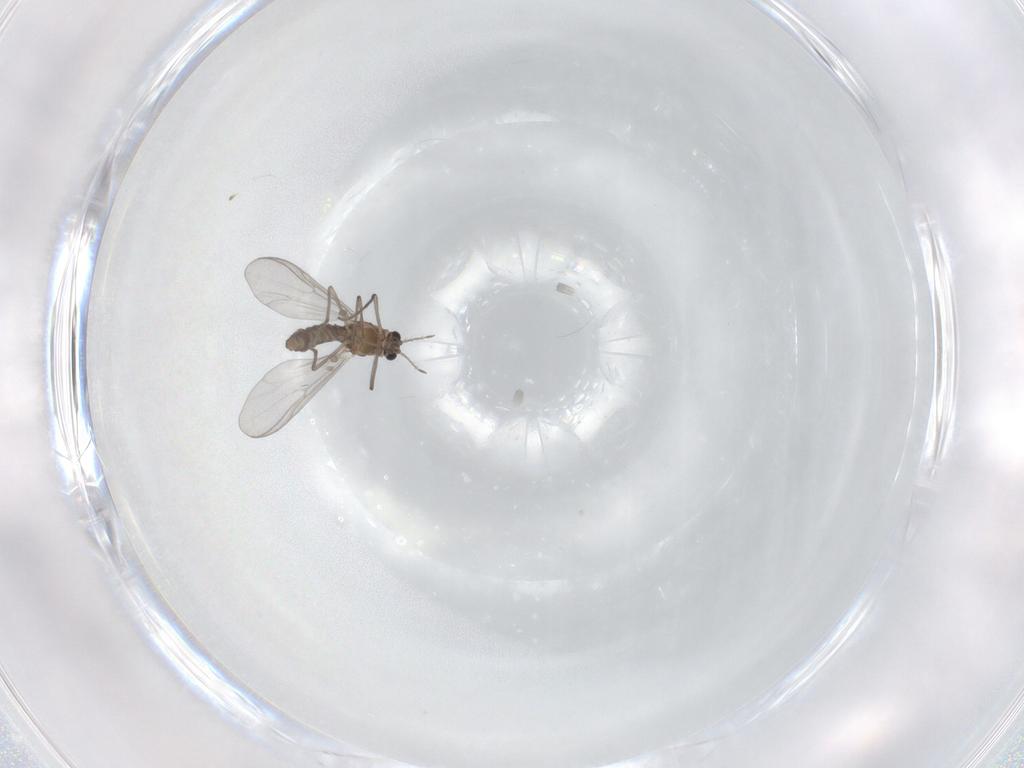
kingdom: Animalia
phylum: Arthropoda
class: Insecta
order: Diptera
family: Chironomidae
